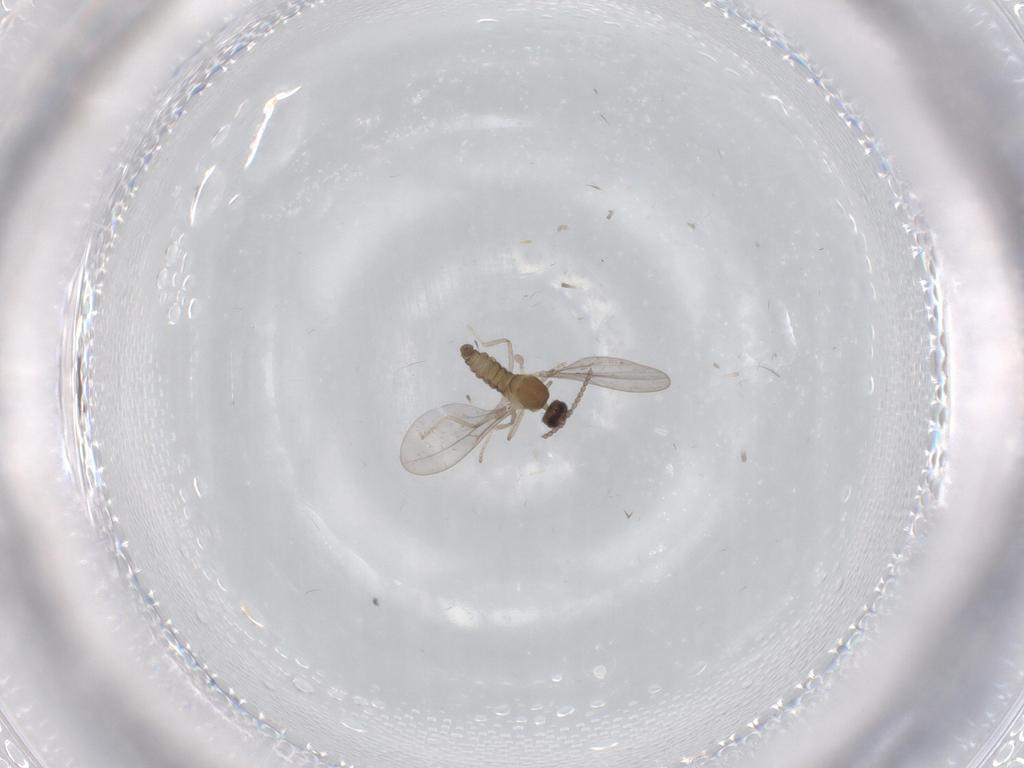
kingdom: Animalia
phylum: Arthropoda
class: Insecta
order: Diptera
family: Cecidomyiidae
